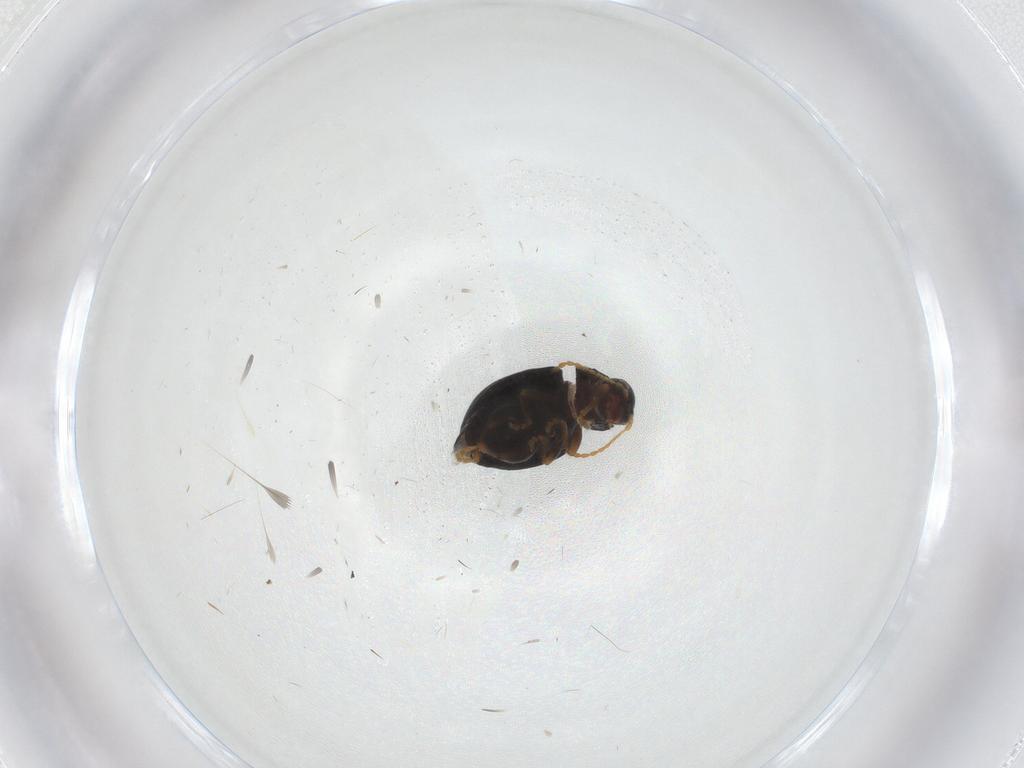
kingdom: Animalia
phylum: Arthropoda
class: Insecta
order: Coleoptera
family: Chrysomelidae
